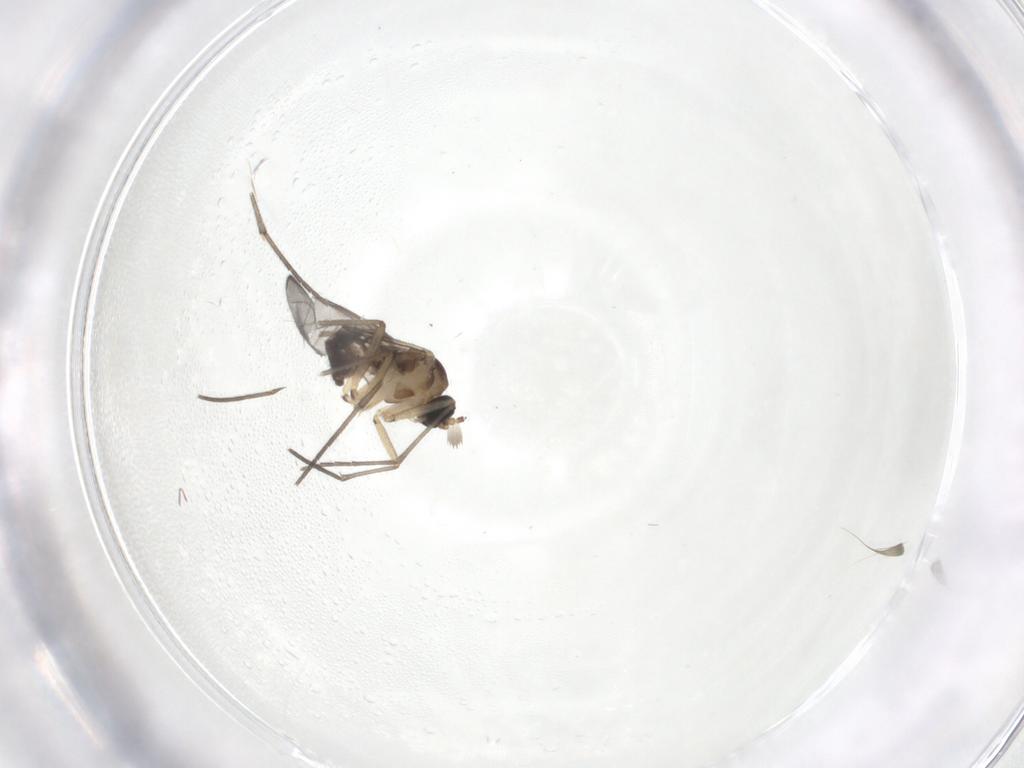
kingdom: Animalia
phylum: Arthropoda
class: Insecta
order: Diptera
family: Sciaridae
